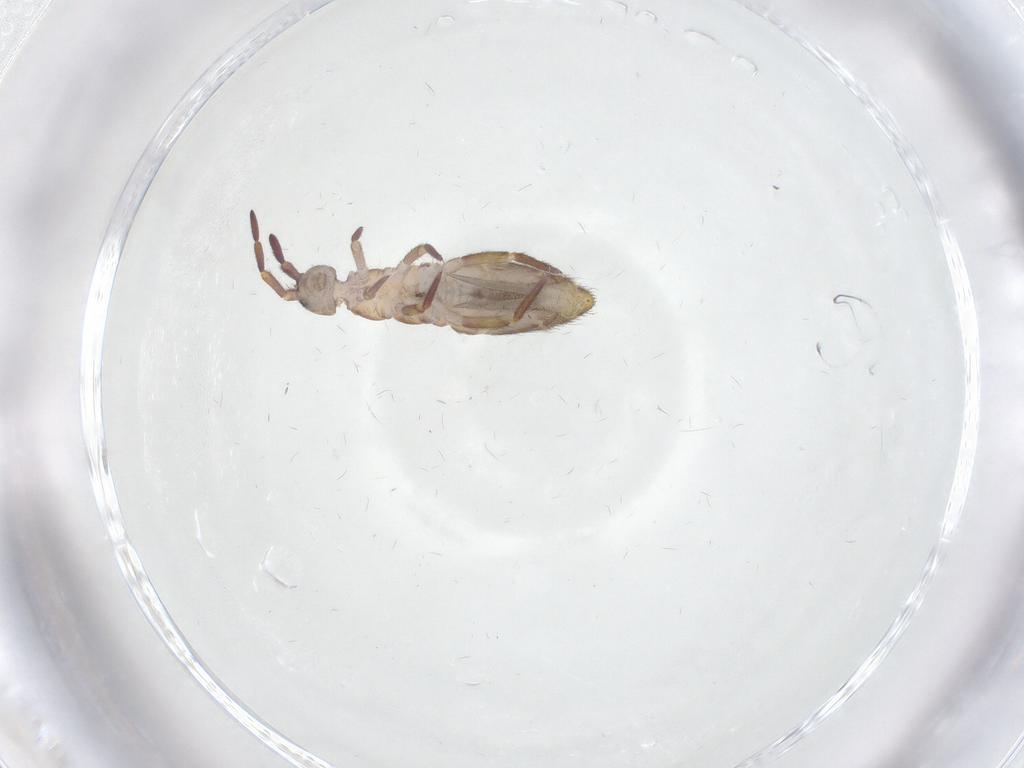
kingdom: Animalia
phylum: Arthropoda
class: Collembola
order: Entomobryomorpha
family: Isotomidae
